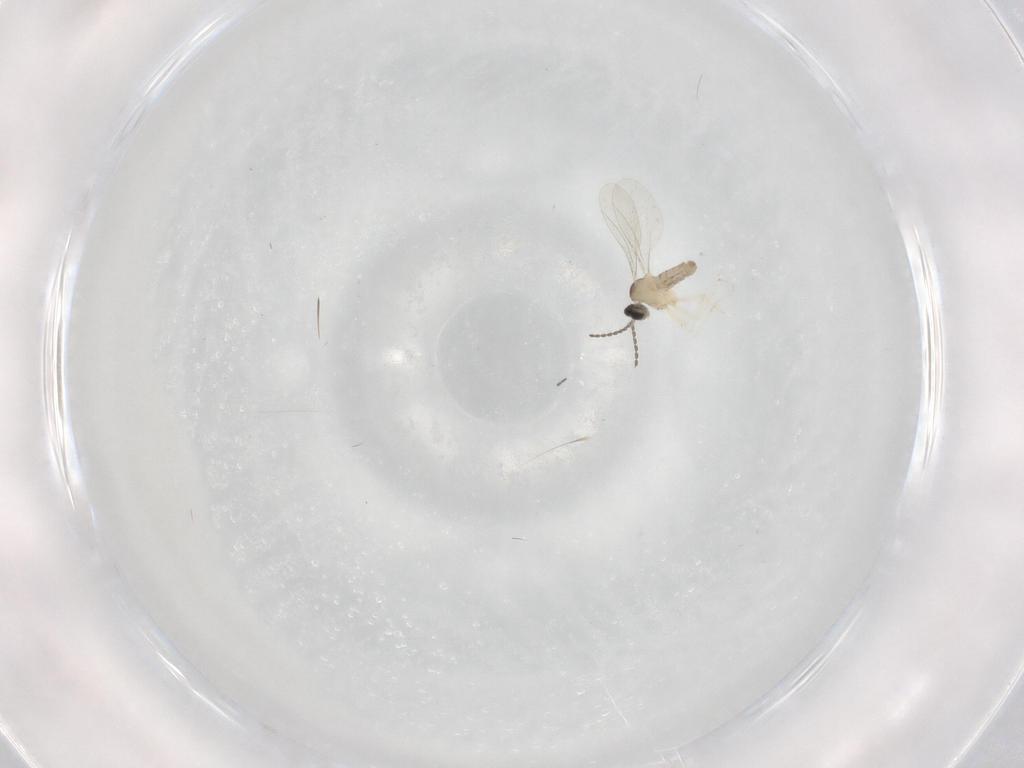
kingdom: Animalia
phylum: Arthropoda
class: Insecta
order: Diptera
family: Cecidomyiidae
